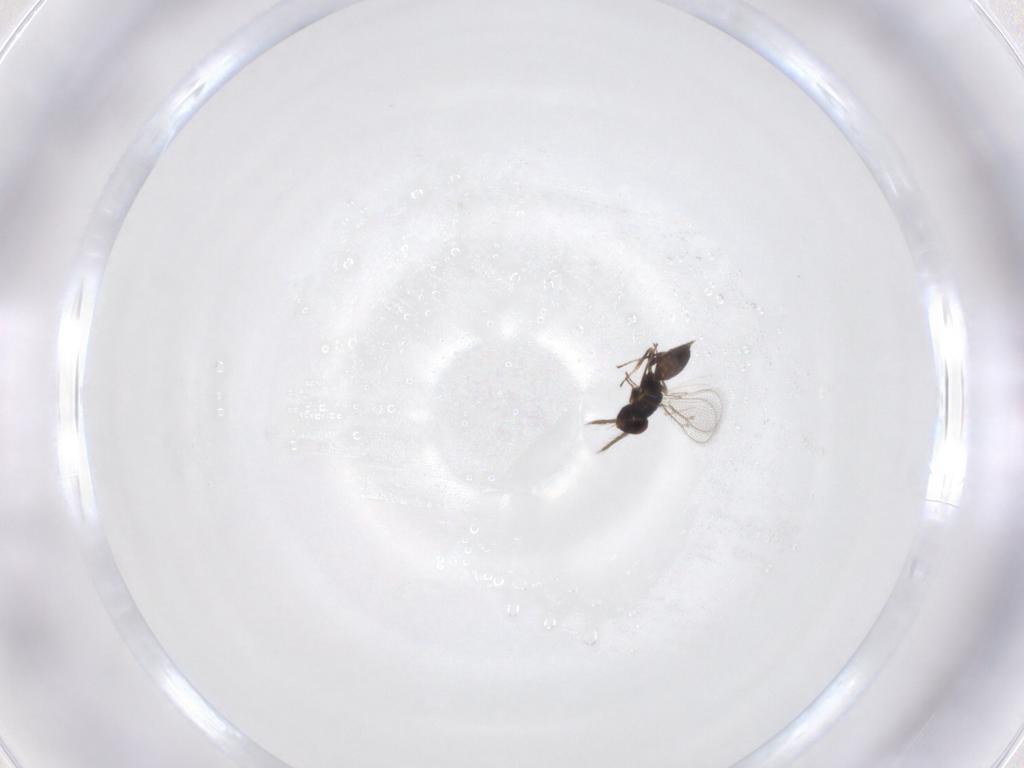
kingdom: Animalia
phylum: Arthropoda
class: Insecta
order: Hymenoptera
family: Eulophidae
